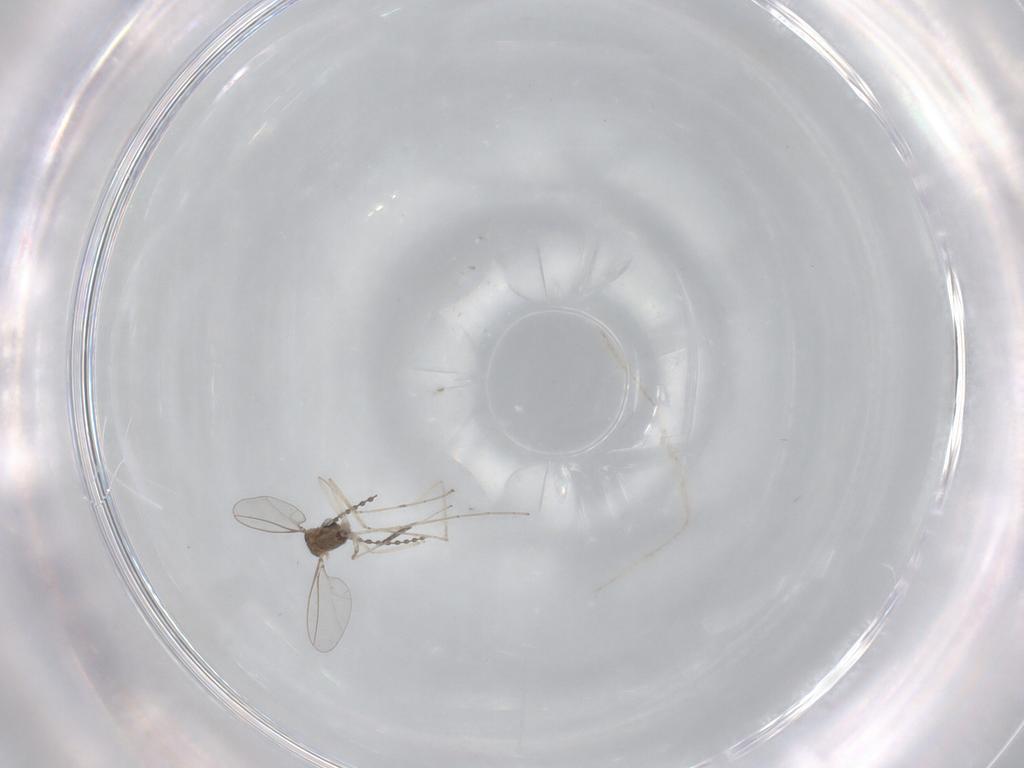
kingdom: Animalia
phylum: Arthropoda
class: Insecta
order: Diptera
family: Cecidomyiidae
